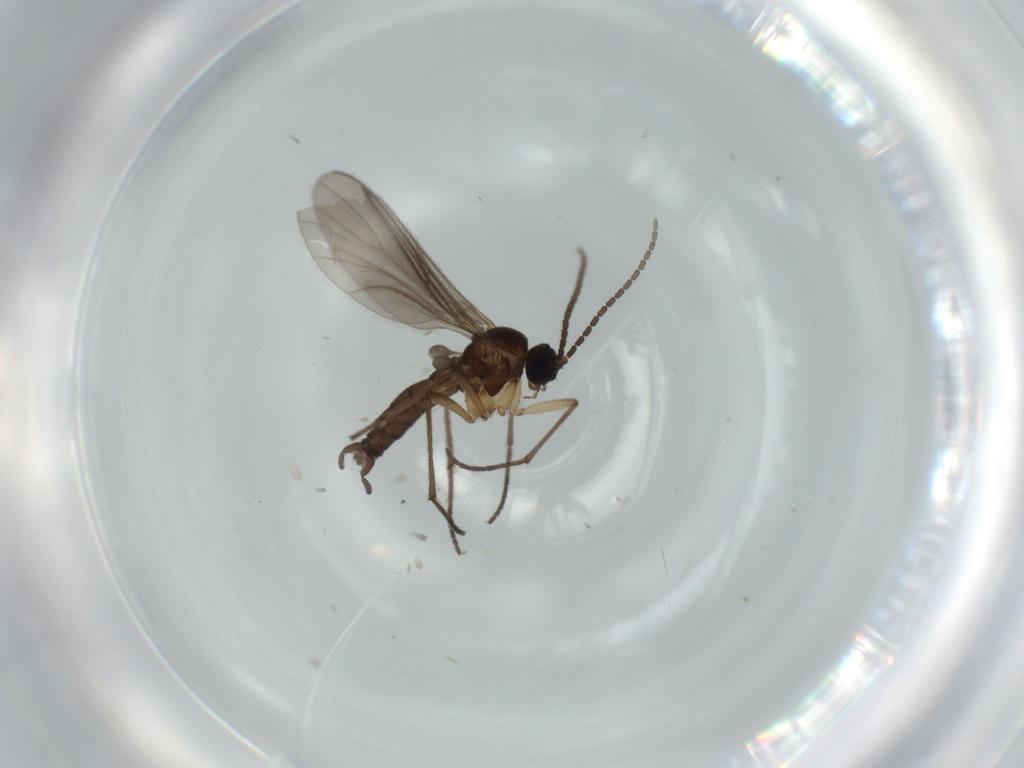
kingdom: Animalia
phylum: Arthropoda
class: Insecta
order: Diptera
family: Sciaridae
